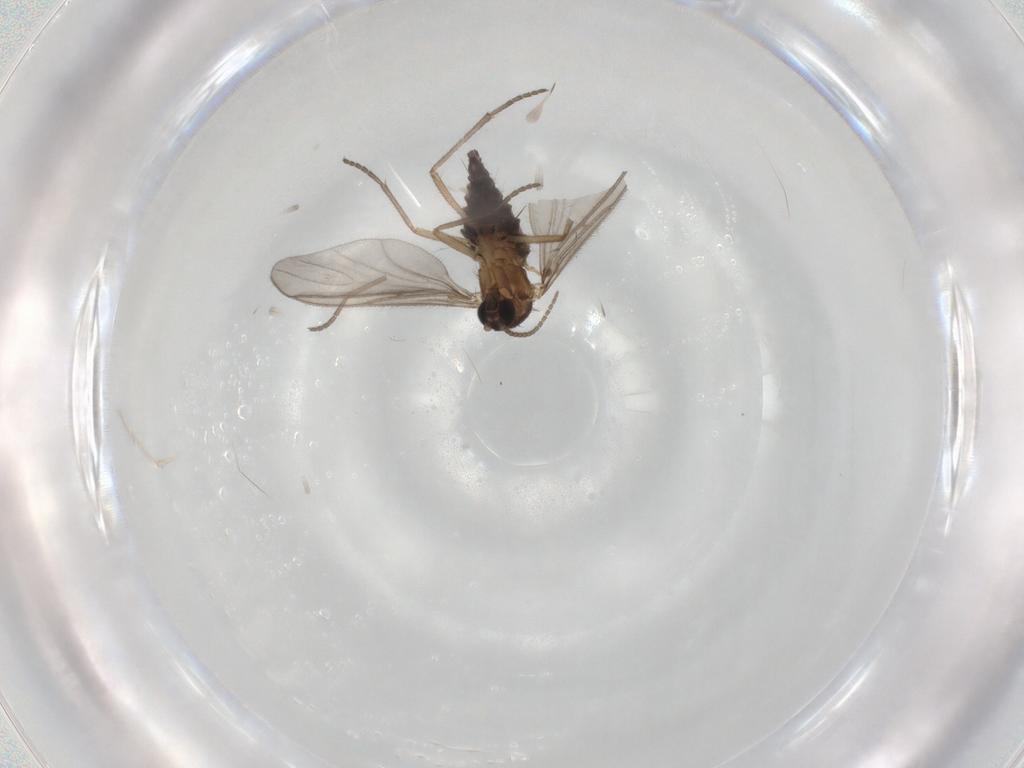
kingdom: Animalia
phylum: Arthropoda
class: Insecta
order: Diptera
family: Sciaridae
